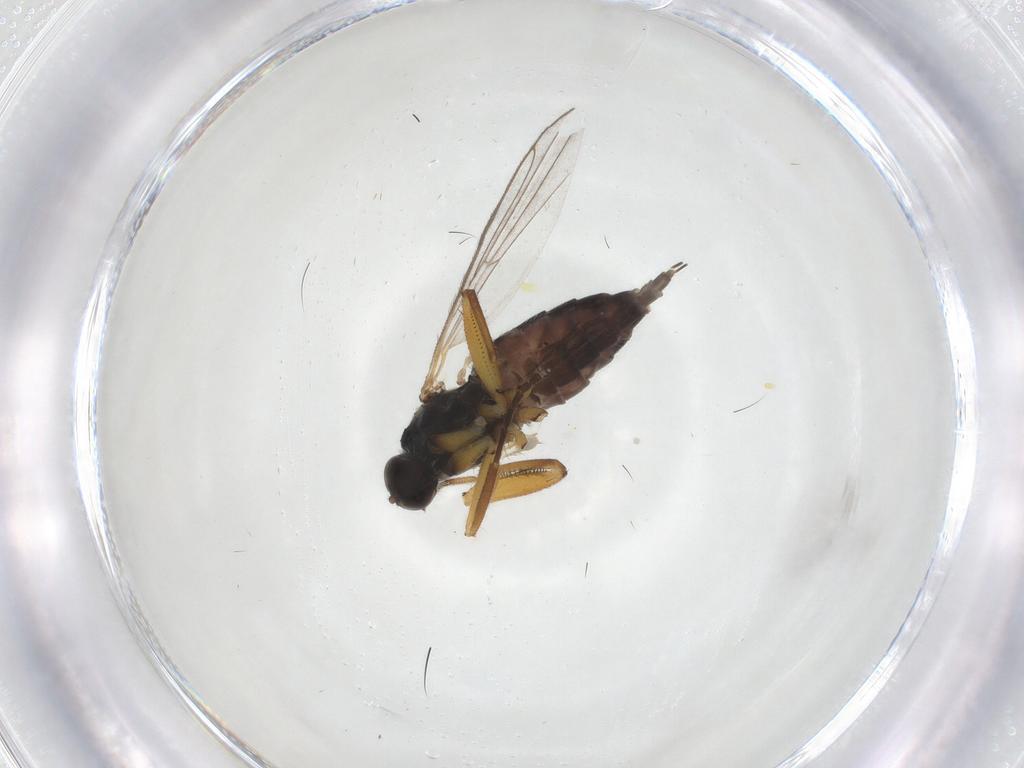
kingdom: Animalia
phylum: Arthropoda
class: Insecta
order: Diptera
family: Hybotidae
